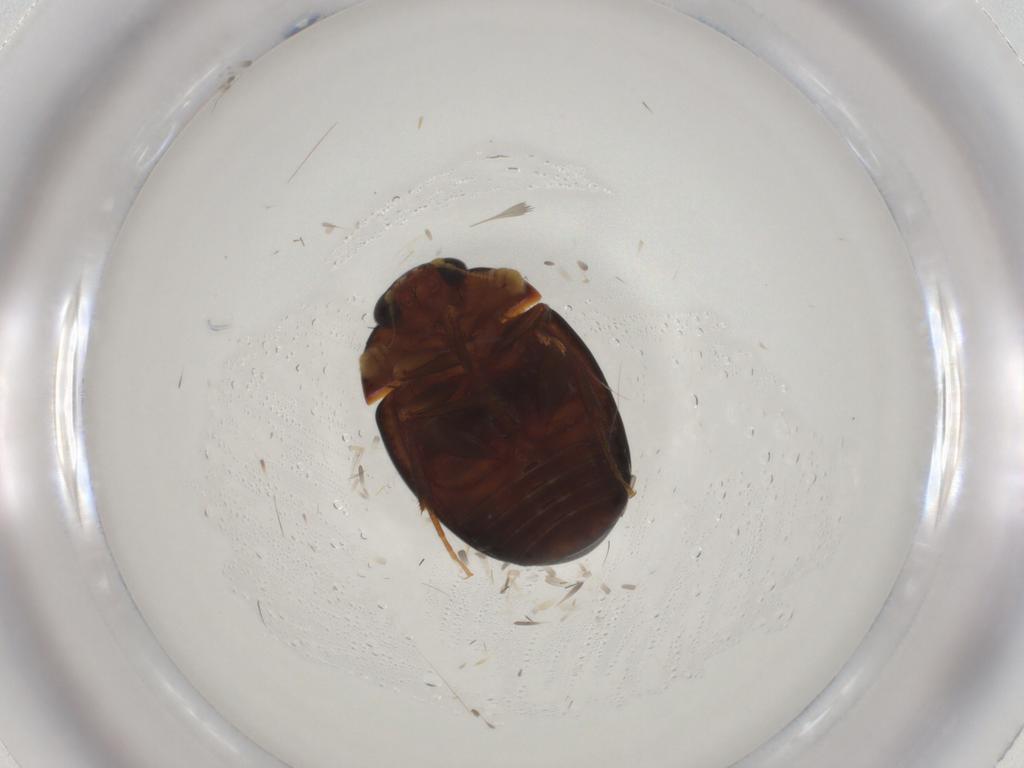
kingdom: Animalia
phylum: Arthropoda
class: Insecta
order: Coleoptera
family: Nitidulidae
